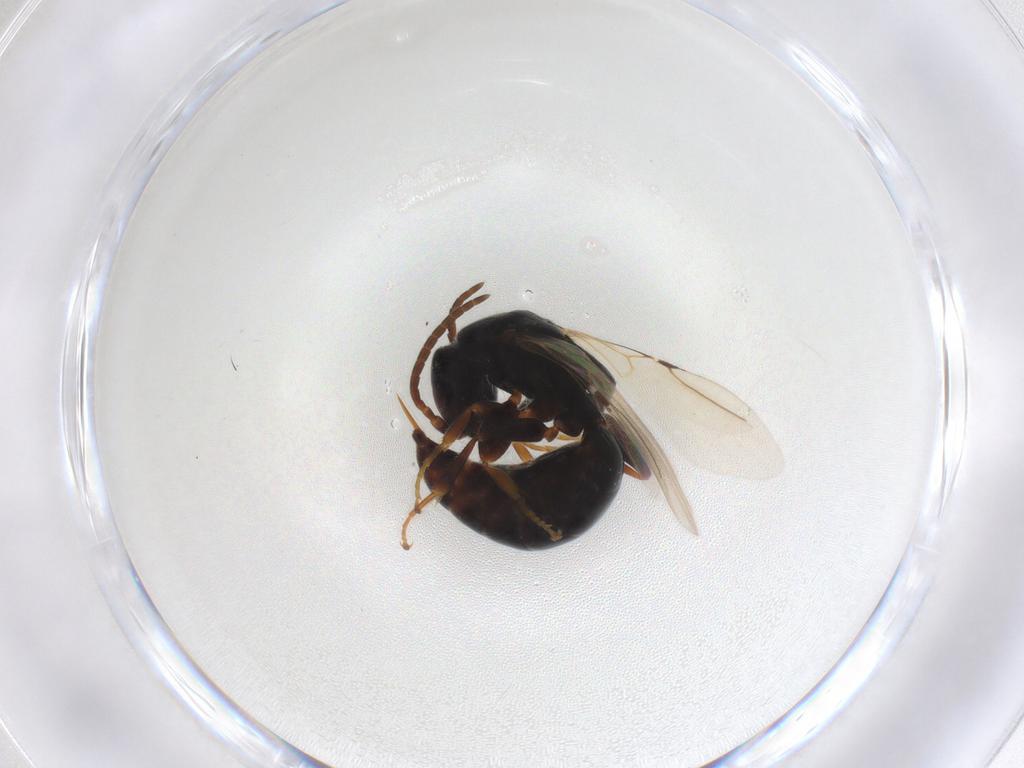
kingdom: Animalia
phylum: Arthropoda
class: Insecta
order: Hymenoptera
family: Bethylidae
